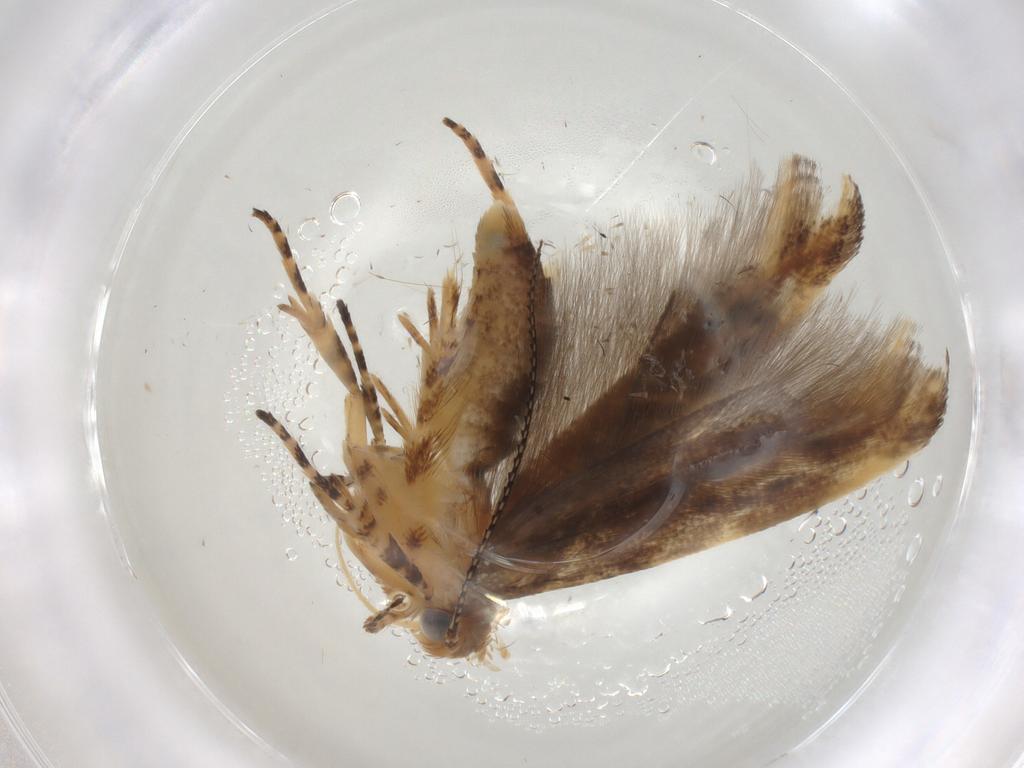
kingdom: Animalia
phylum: Arthropoda
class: Insecta
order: Lepidoptera
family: Gelechiidae
